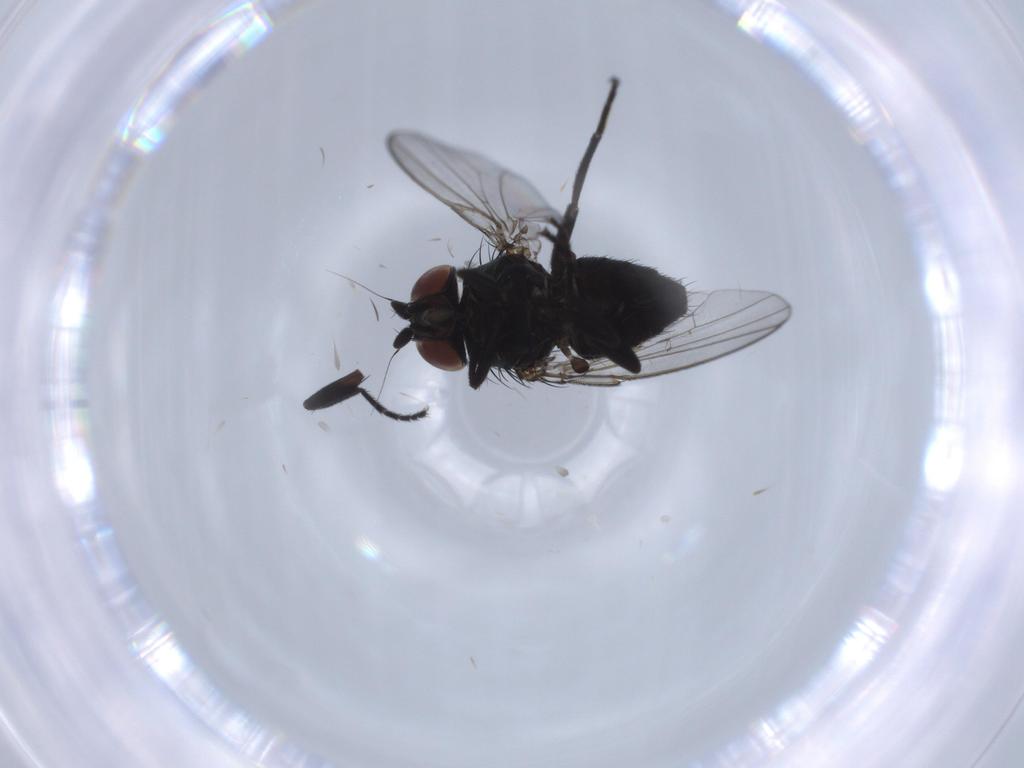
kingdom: Animalia
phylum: Arthropoda
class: Insecta
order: Diptera
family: Milichiidae
